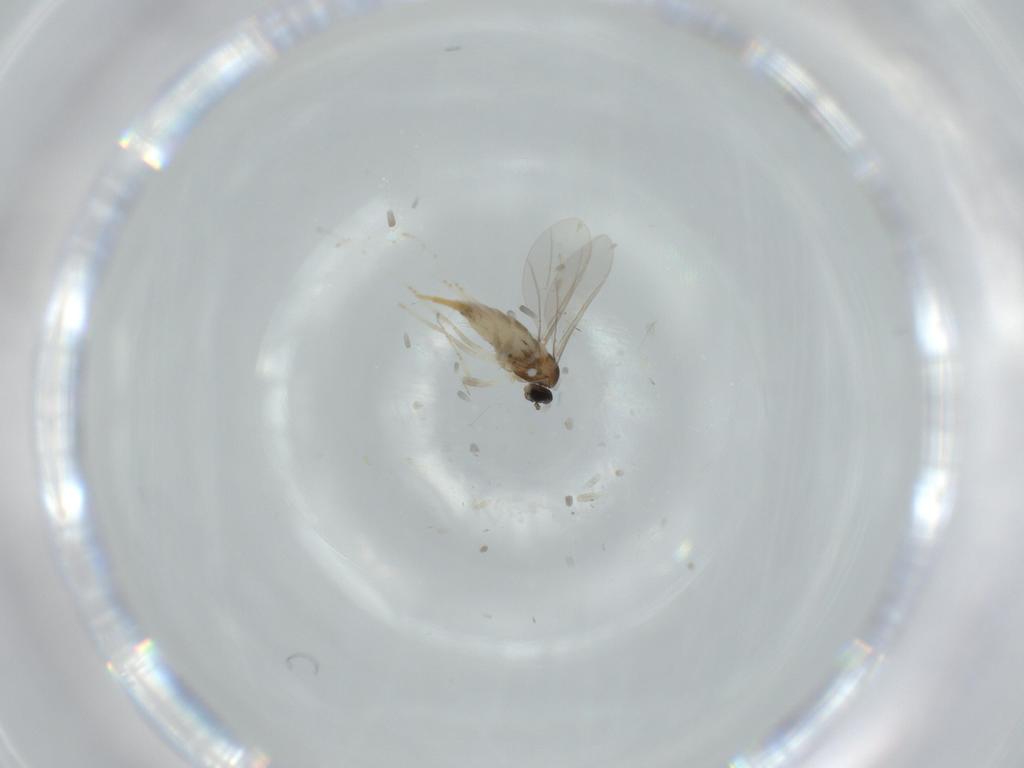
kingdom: Animalia
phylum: Arthropoda
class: Insecta
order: Diptera
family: Cecidomyiidae
